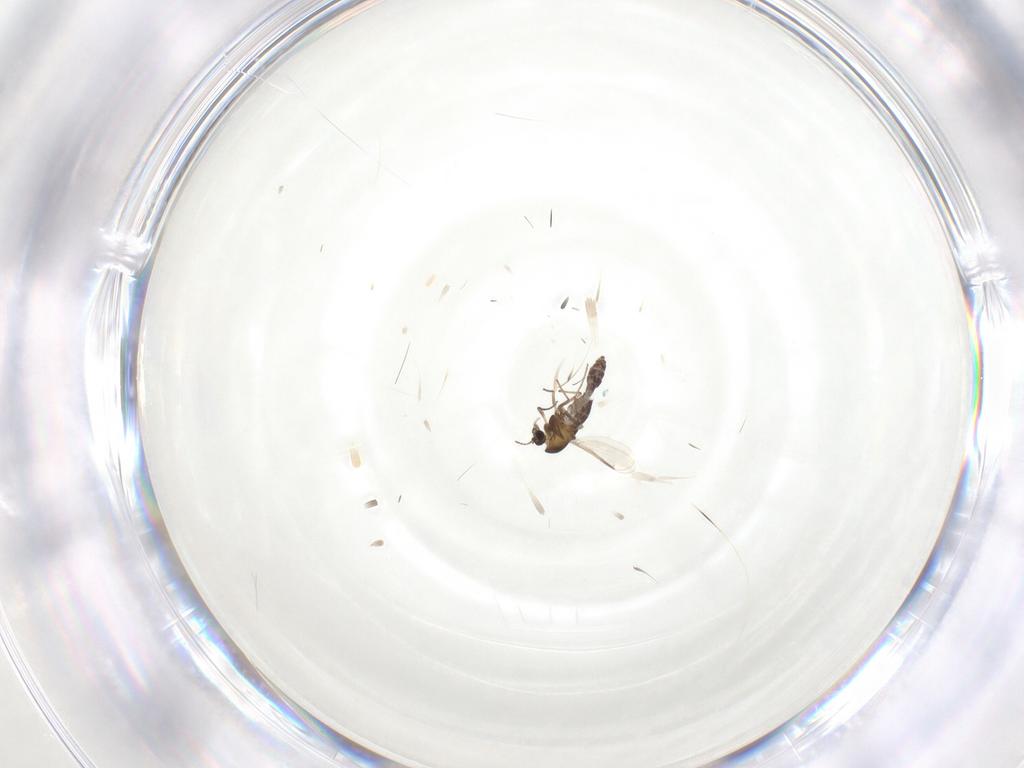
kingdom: Animalia
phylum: Arthropoda
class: Insecta
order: Diptera
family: Chironomidae
